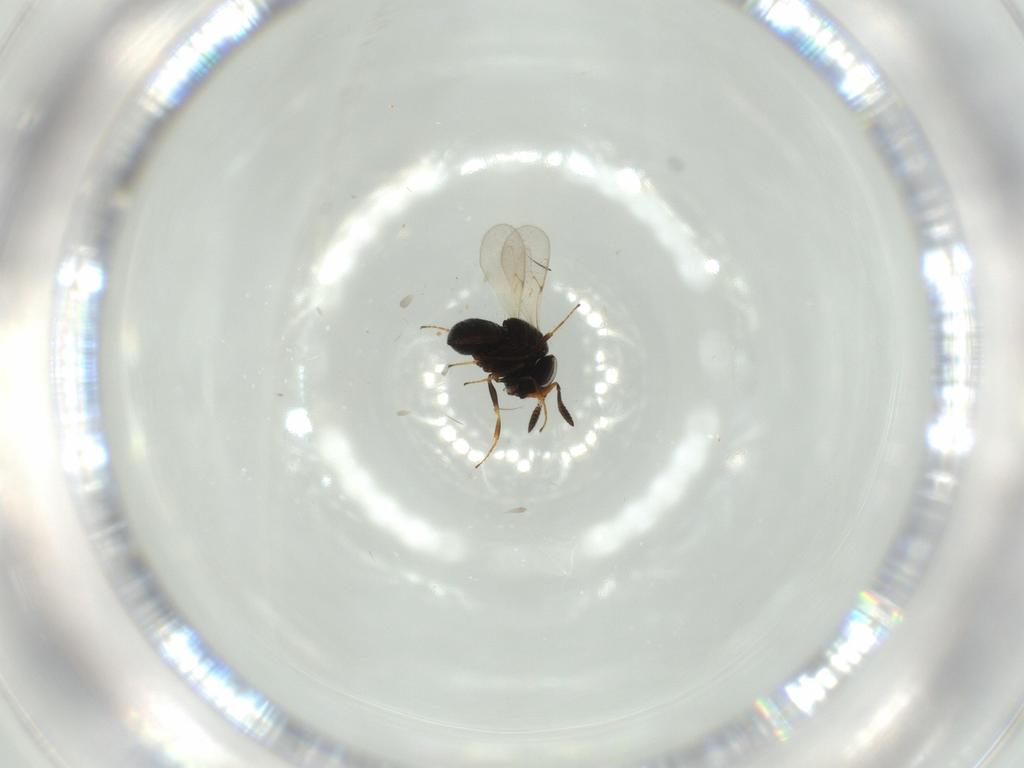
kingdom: Animalia
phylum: Arthropoda
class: Insecta
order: Hymenoptera
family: Scelionidae
